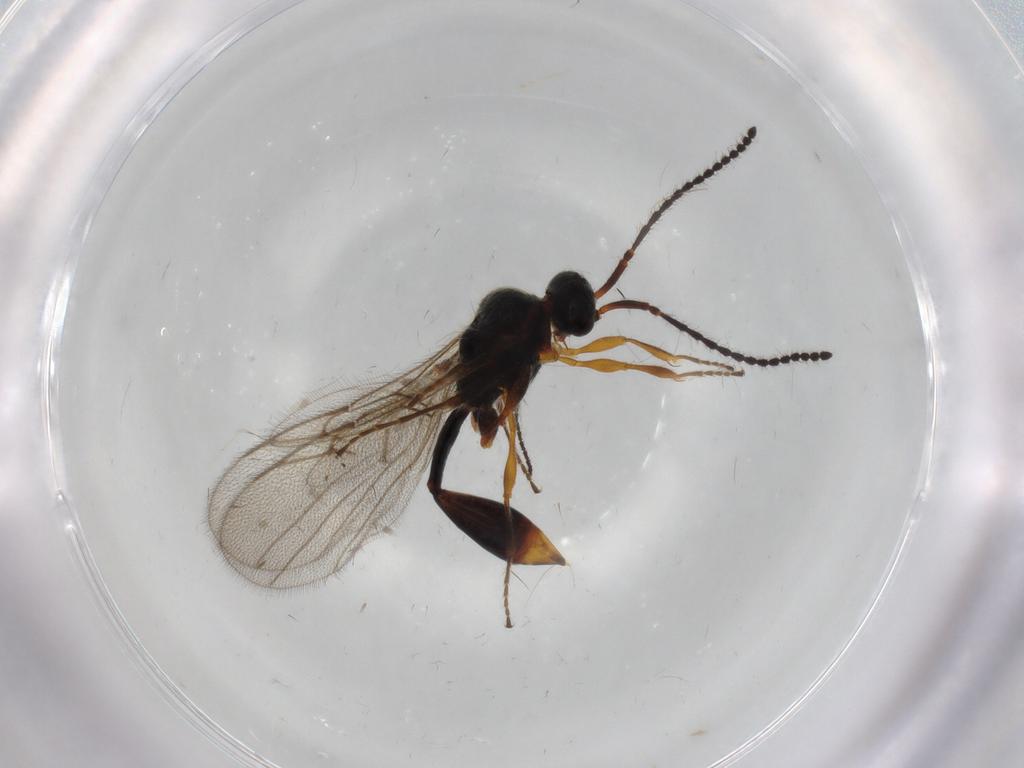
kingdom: Animalia
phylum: Arthropoda
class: Insecta
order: Hymenoptera
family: Diapriidae
